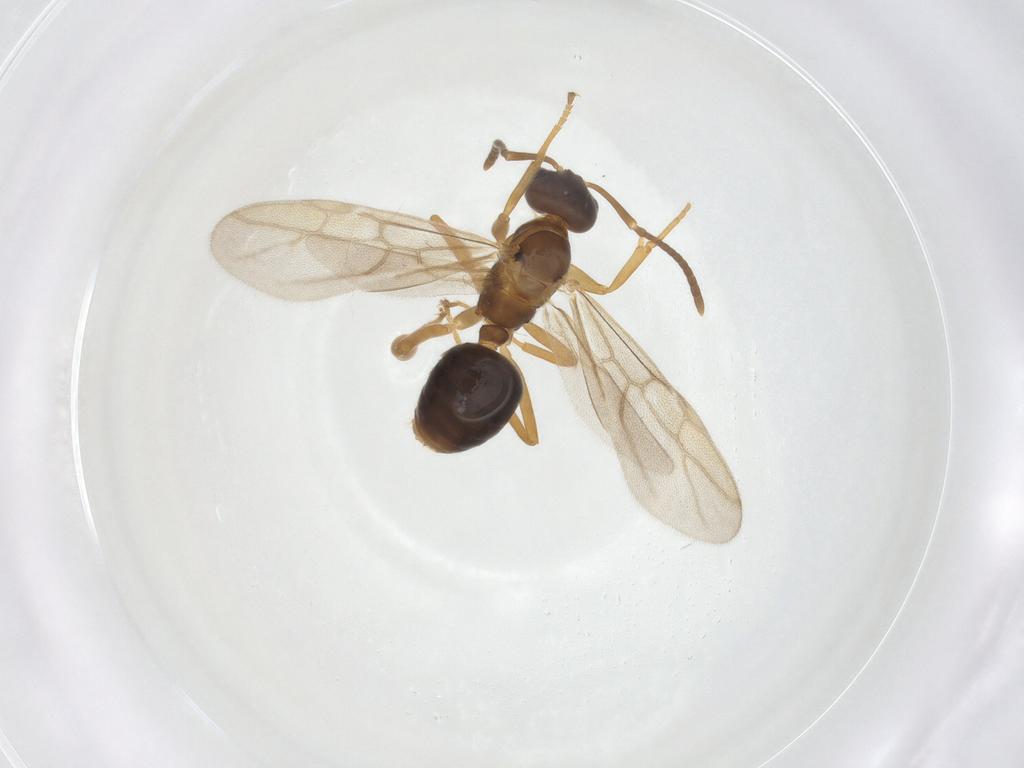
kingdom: Animalia
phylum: Arthropoda
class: Insecta
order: Hymenoptera
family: Formicidae
